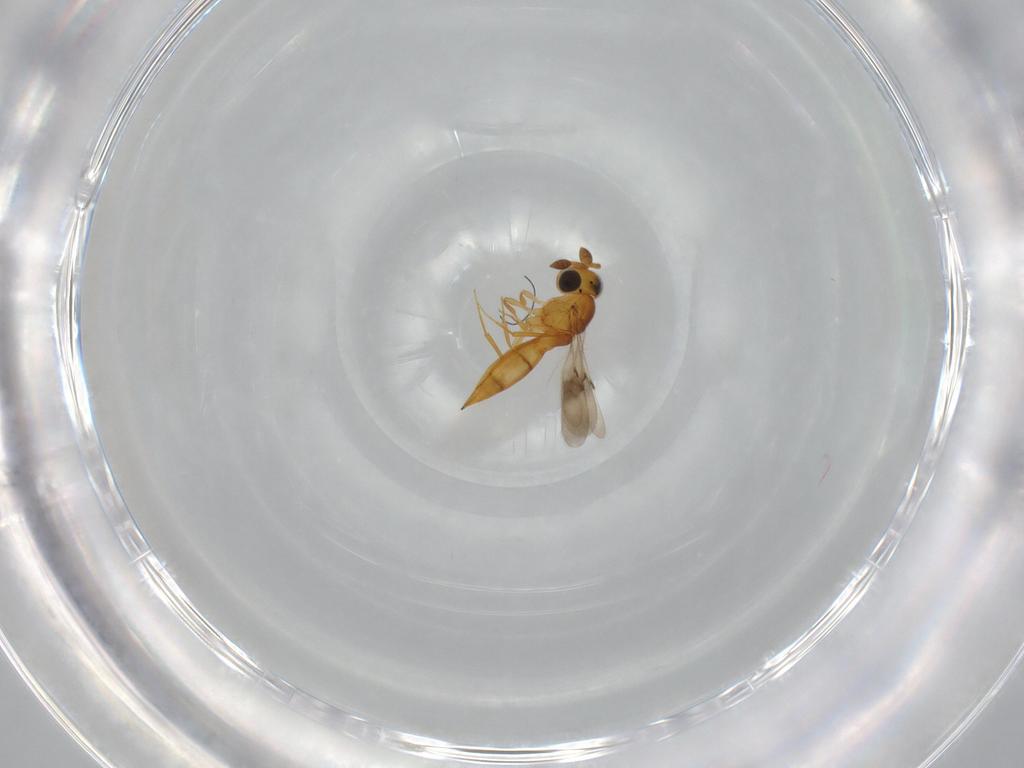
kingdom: Animalia
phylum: Arthropoda
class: Insecta
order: Hymenoptera
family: Scelionidae
